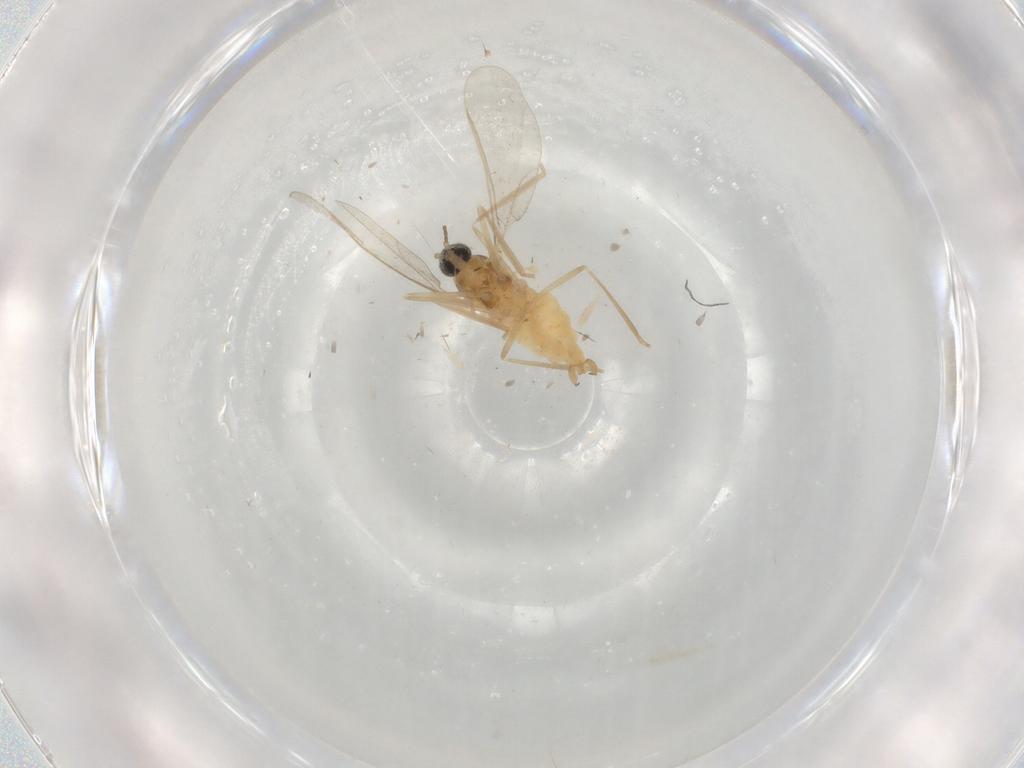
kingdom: Animalia
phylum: Arthropoda
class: Insecta
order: Diptera
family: Cecidomyiidae
